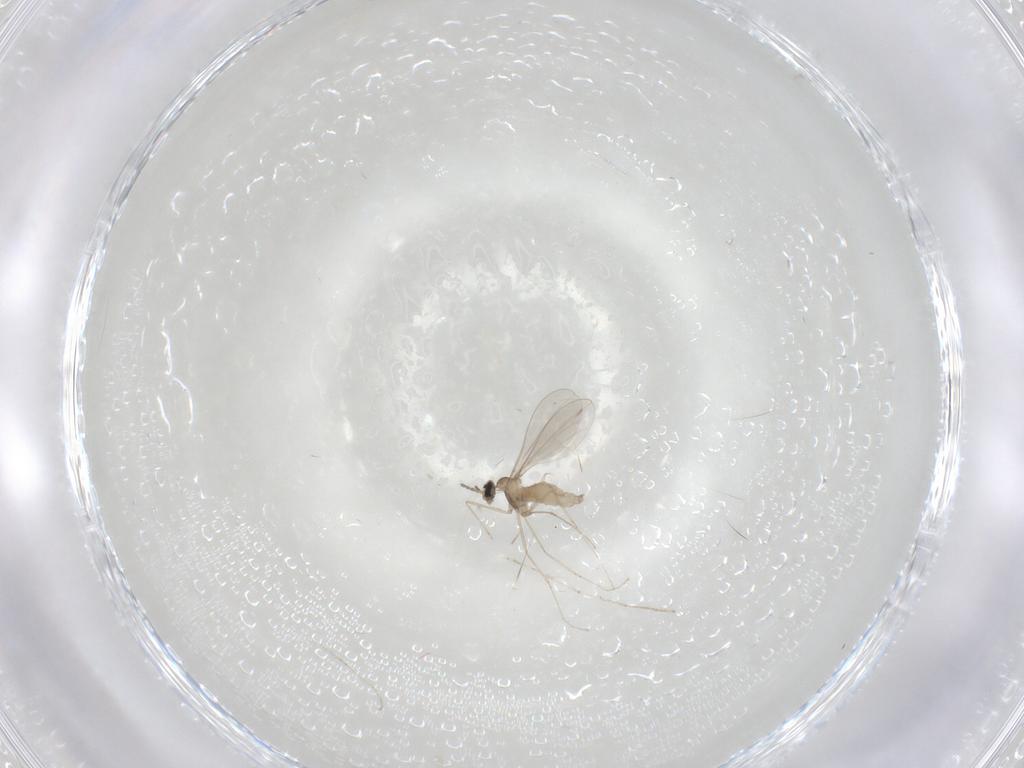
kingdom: Animalia
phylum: Arthropoda
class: Insecta
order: Diptera
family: Cecidomyiidae
